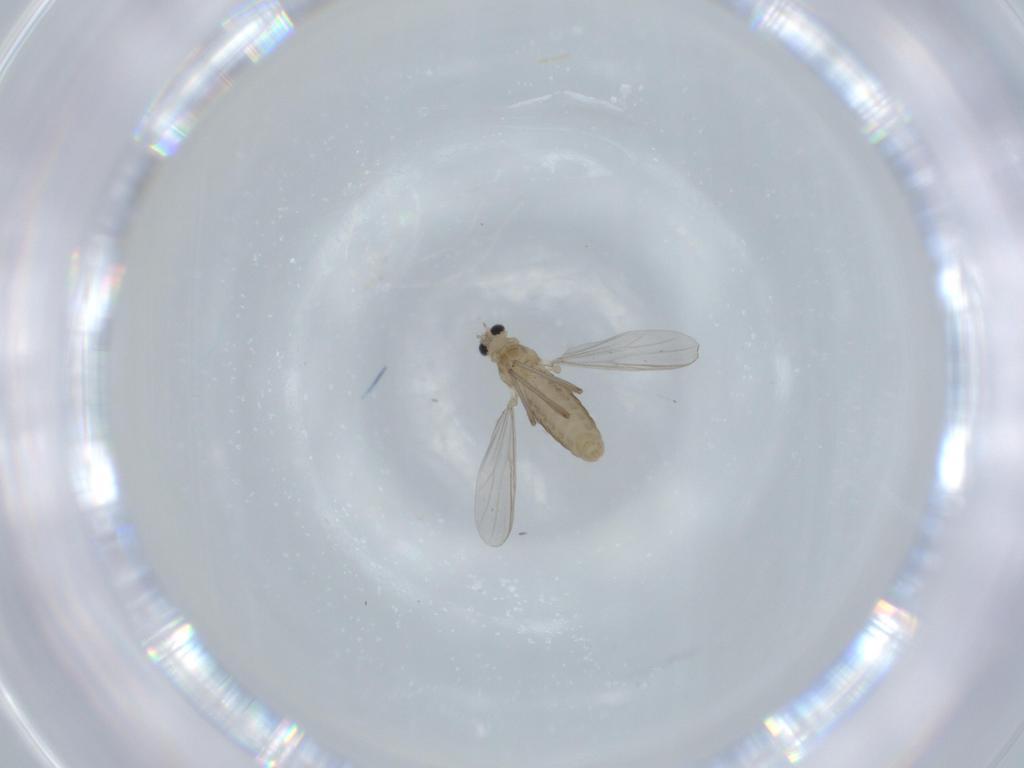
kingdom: Animalia
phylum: Arthropoda
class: Insecta
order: Diptera
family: Chironomidae
